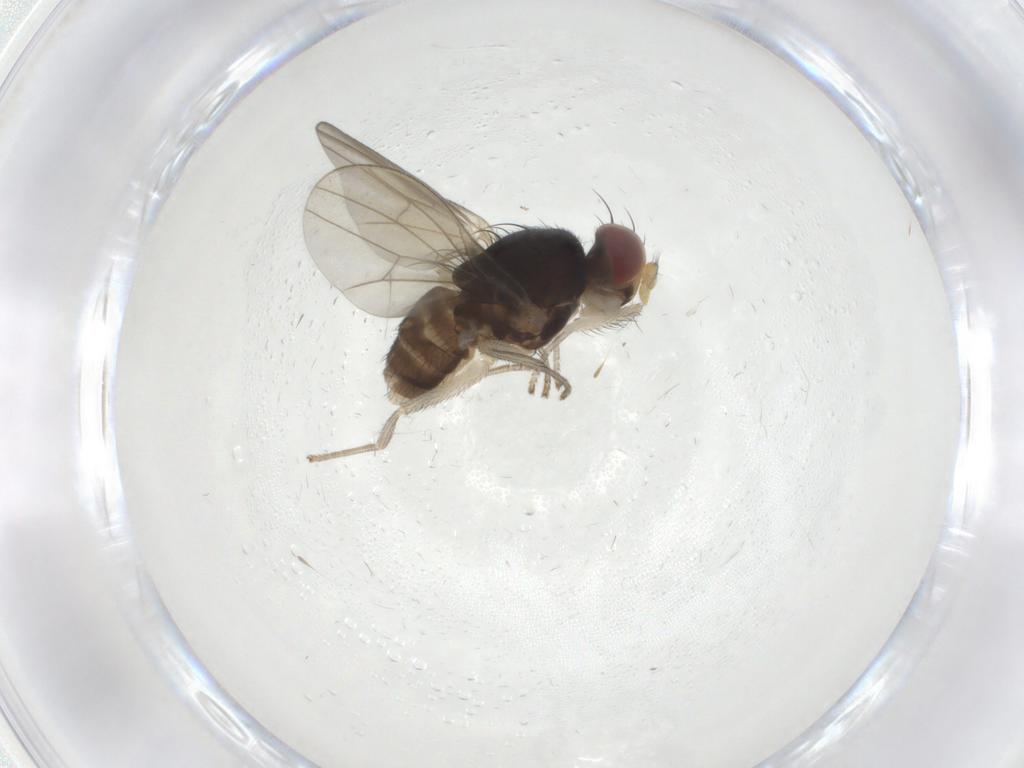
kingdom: Animalia
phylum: Arthropoda
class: Insecta
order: Diptera
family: Lauxaniidae
